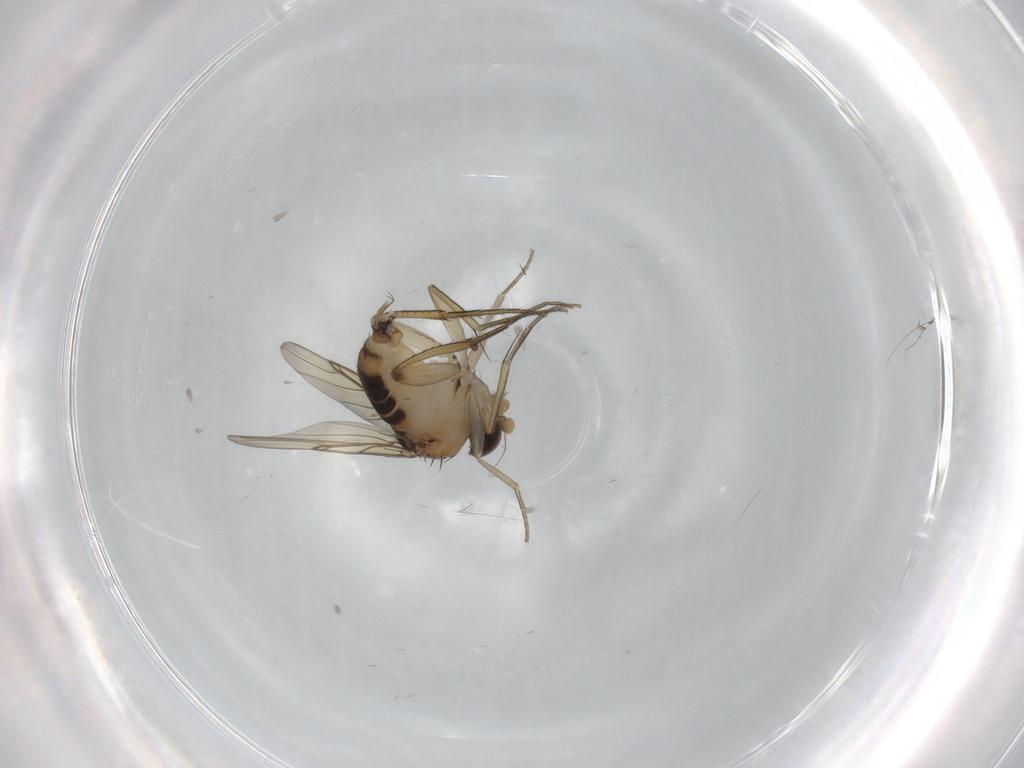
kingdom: Animalia
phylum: Arthropoda
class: Insecta
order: Diptera
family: Phoridae
